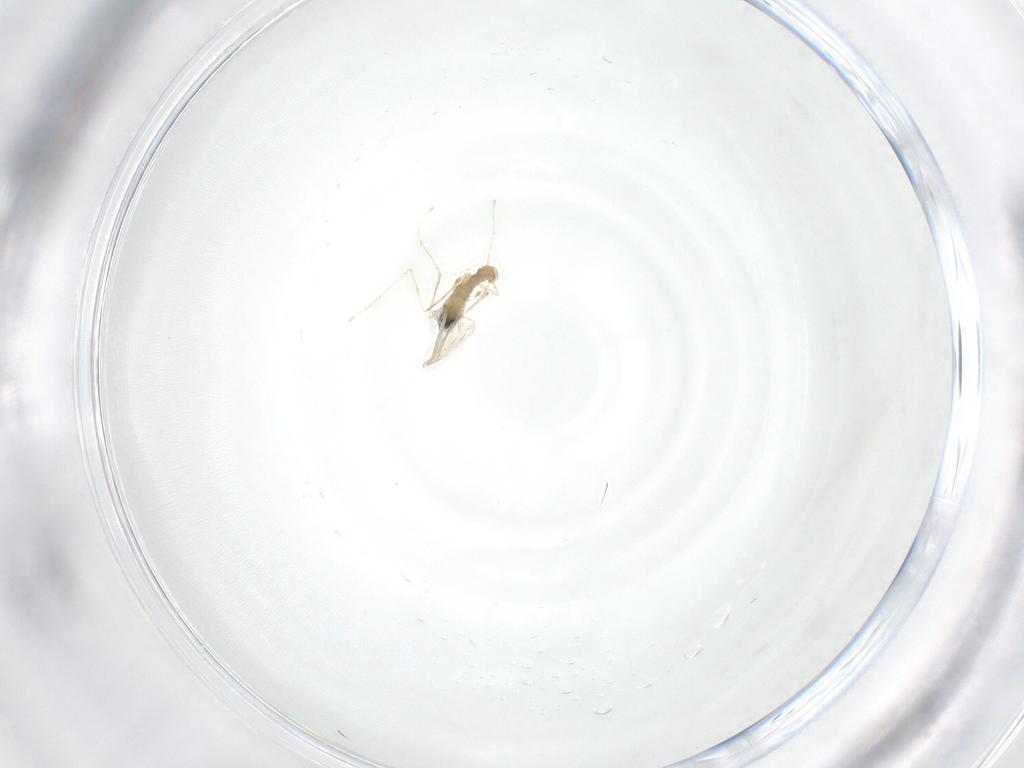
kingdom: Animalia
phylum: Arthropoda
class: Insecta
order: Diptera
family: Cecidomyiidae
